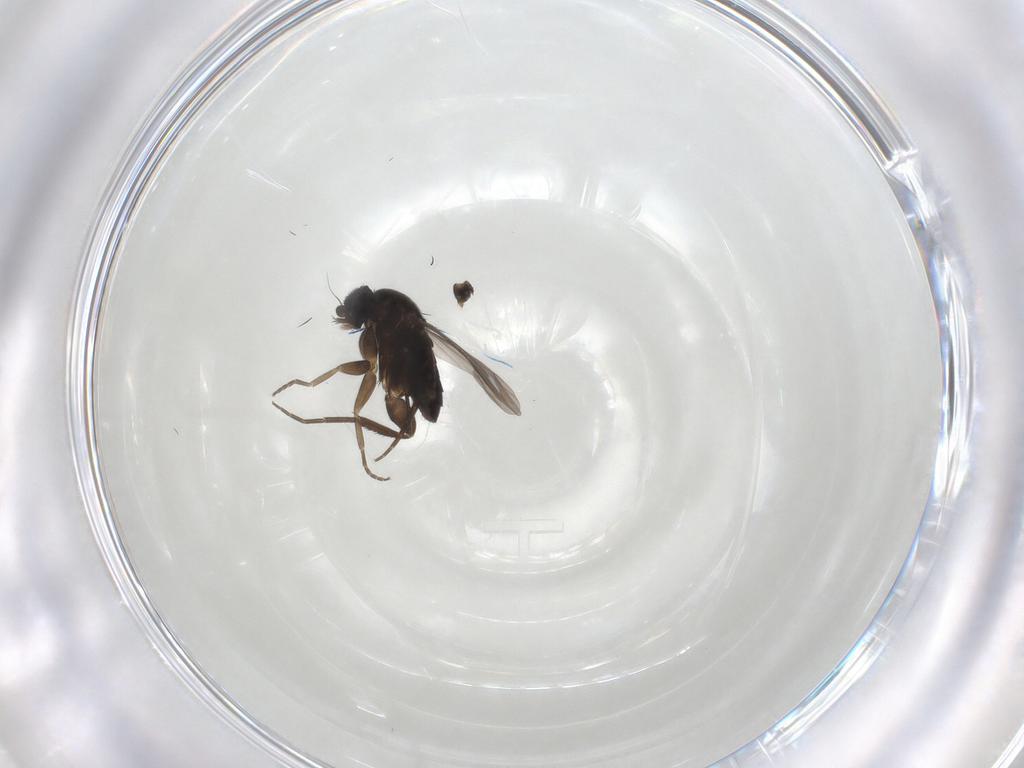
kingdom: Animalia
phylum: Arthropoda
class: Insecta
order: Diptera
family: Phoridae
